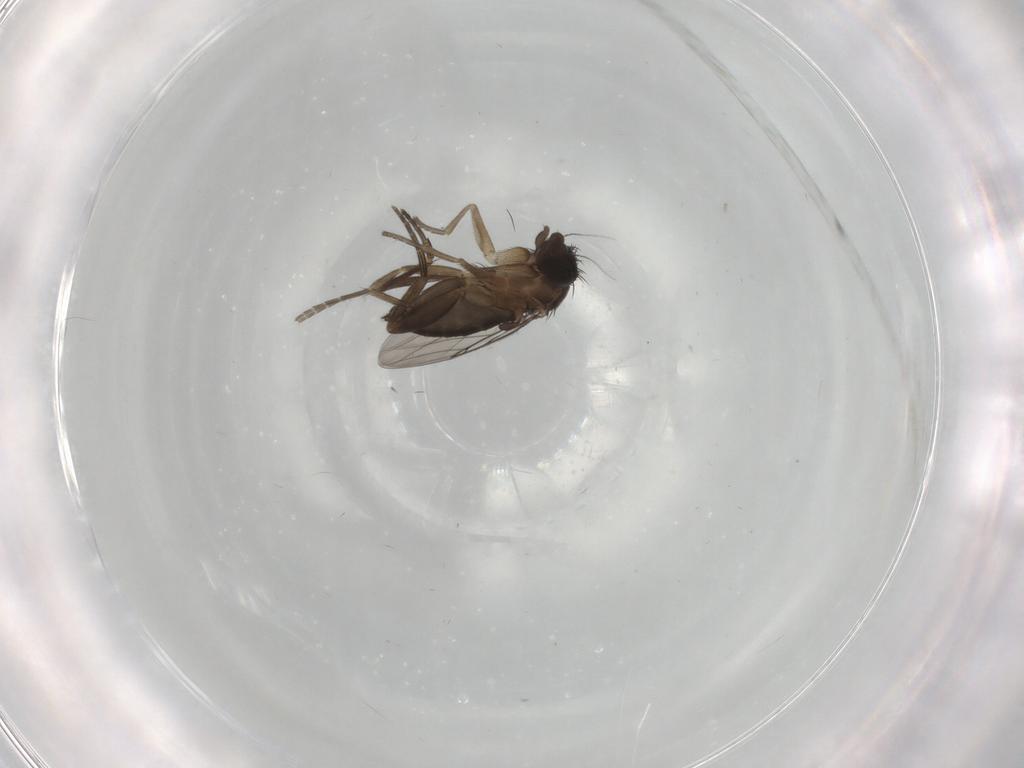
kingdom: Animalia
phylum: Arthropoda
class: Insecta
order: Diptera
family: Phoridae
